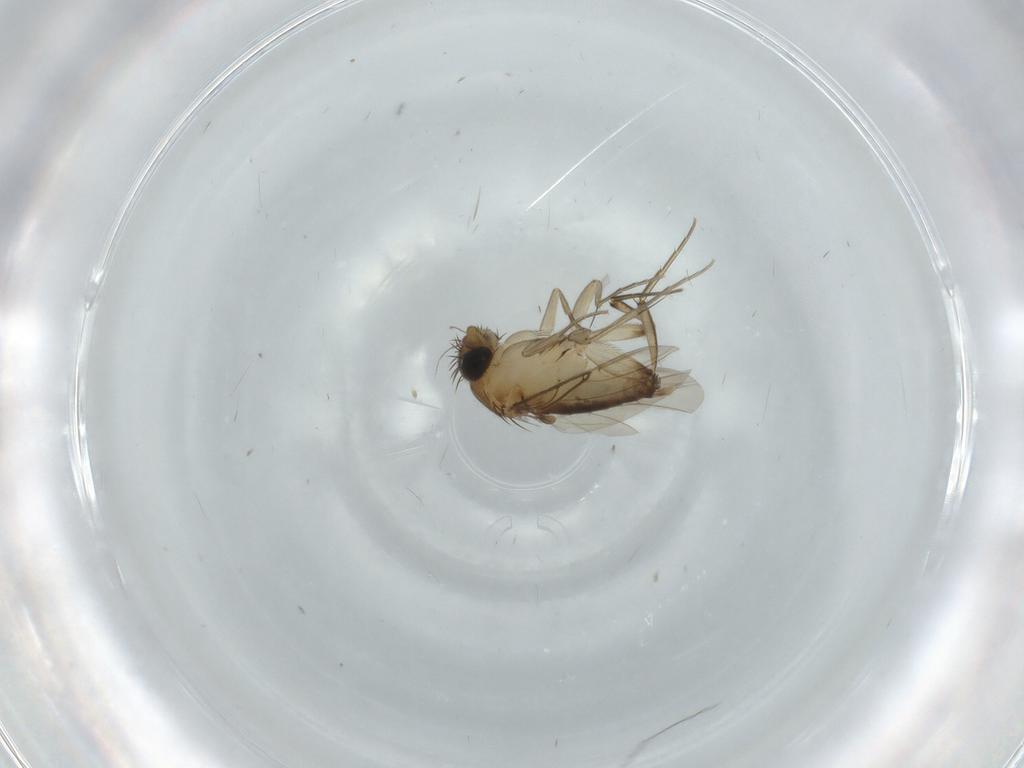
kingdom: Animalia
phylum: Arthropoda
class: Insecta
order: Diptera
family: Phoridae
